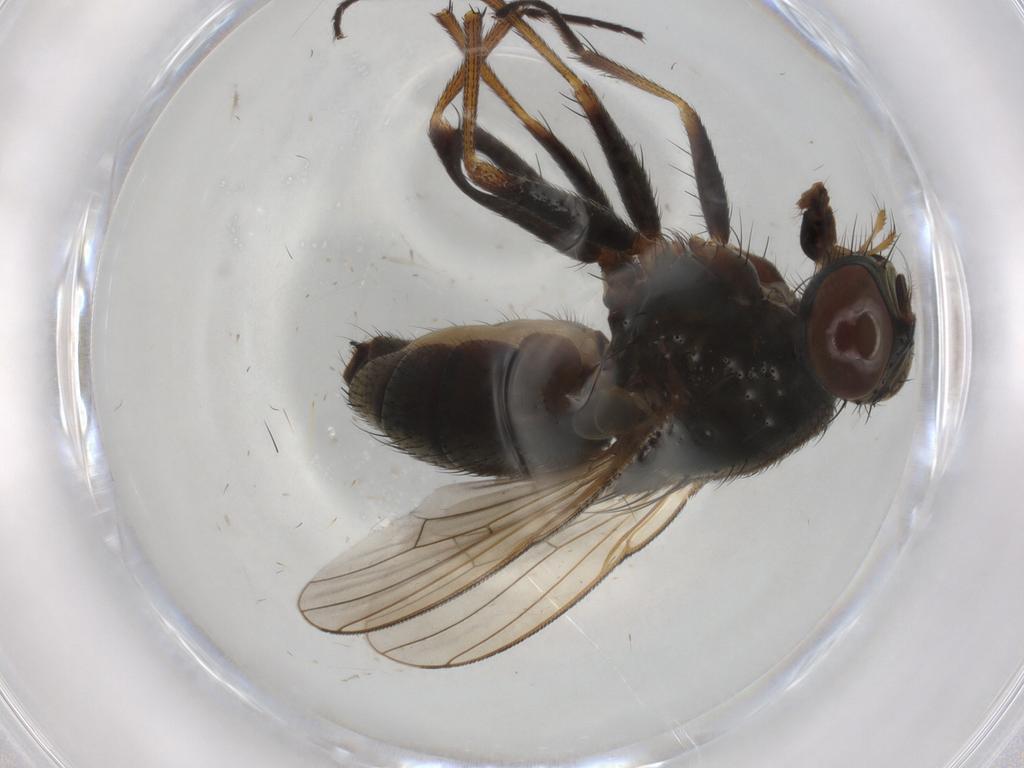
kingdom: Animalia
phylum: Arthropoda
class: Insecta
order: Diptera
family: Muscidae
